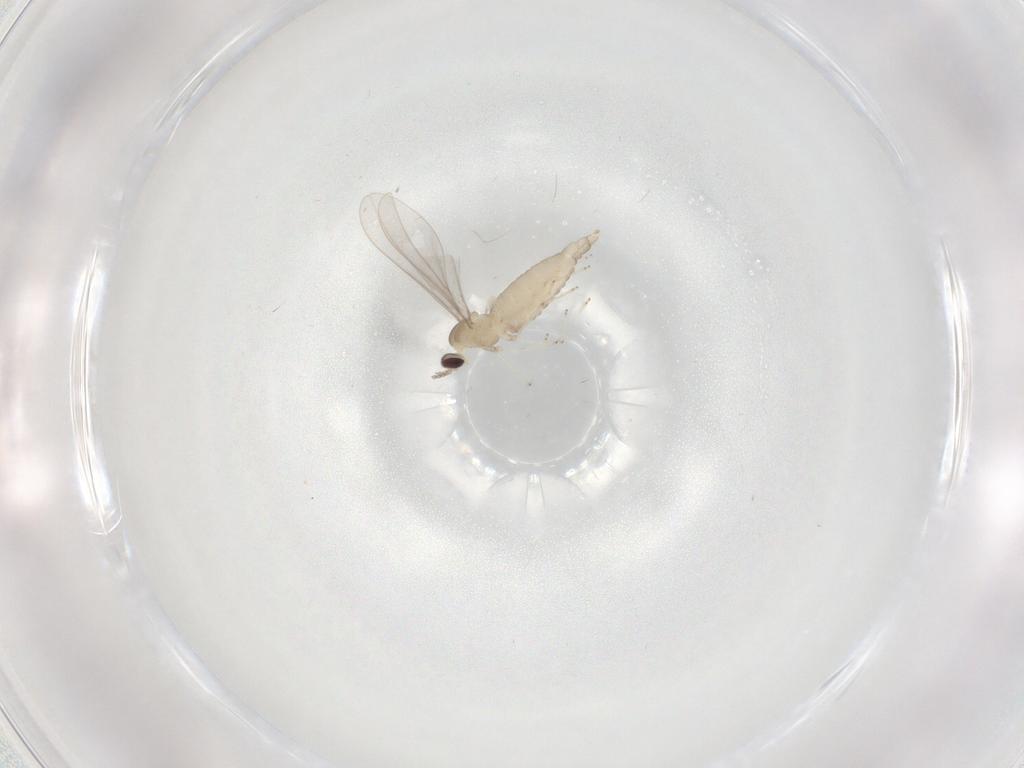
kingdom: Animalia
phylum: Arthropoda
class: Insecta
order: Diptera
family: Cecidomyiidae
